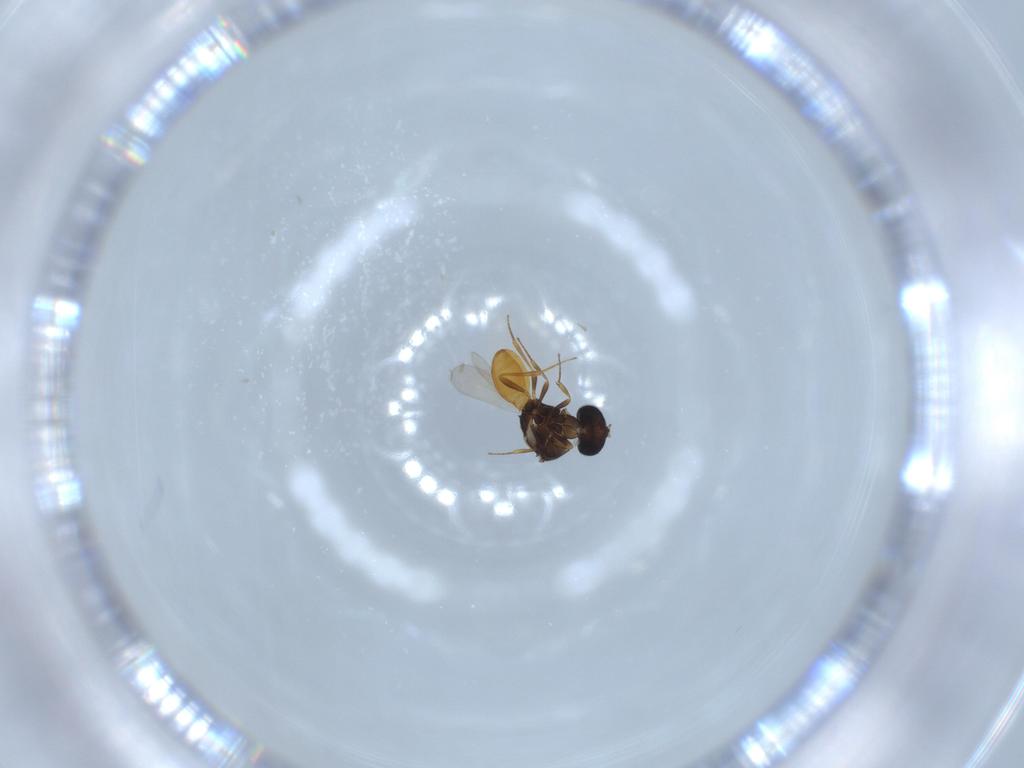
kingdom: Animalia
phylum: Arthropoda
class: Insecta
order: Hymenoptera
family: Scelionidae
